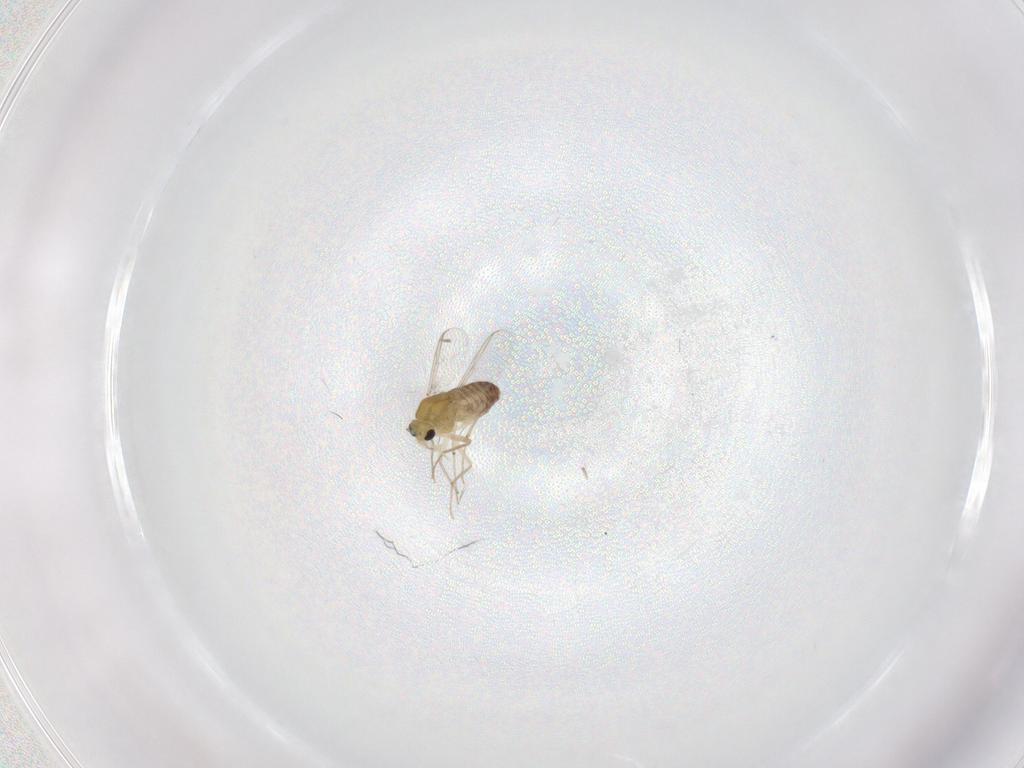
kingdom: Animalia
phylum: Arthropoda
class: Insecta
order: Diptera
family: Chironomidae
